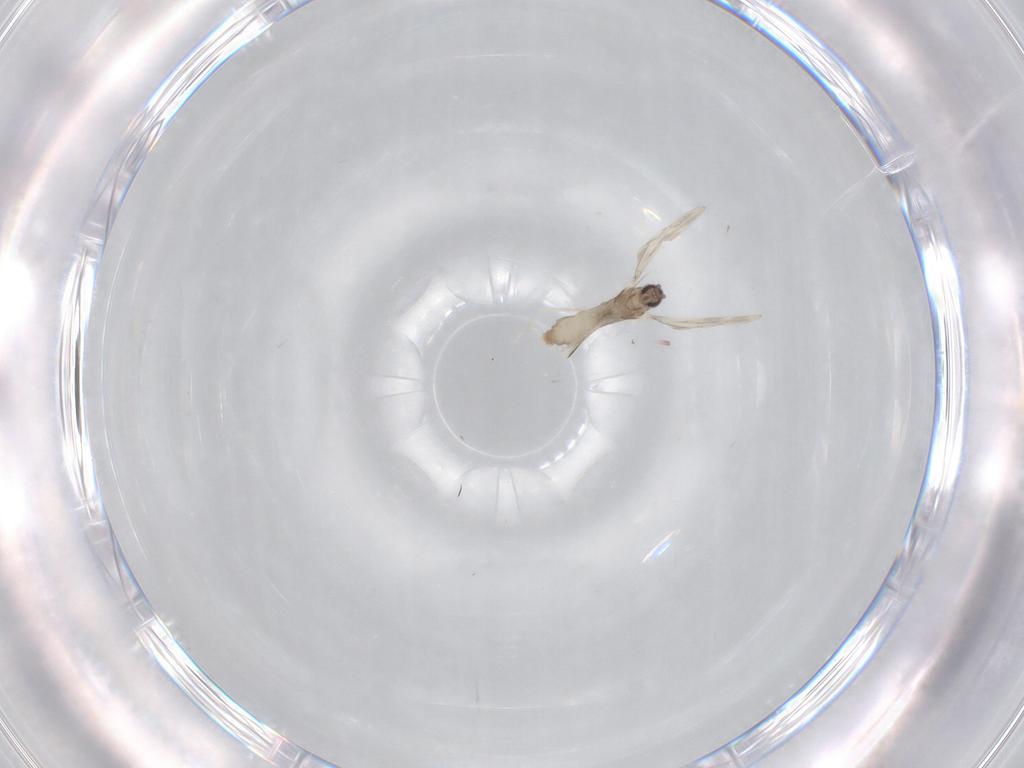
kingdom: Animalia
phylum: Arthropoda
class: Insecta
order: Diptera
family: Cecidomyiidae
